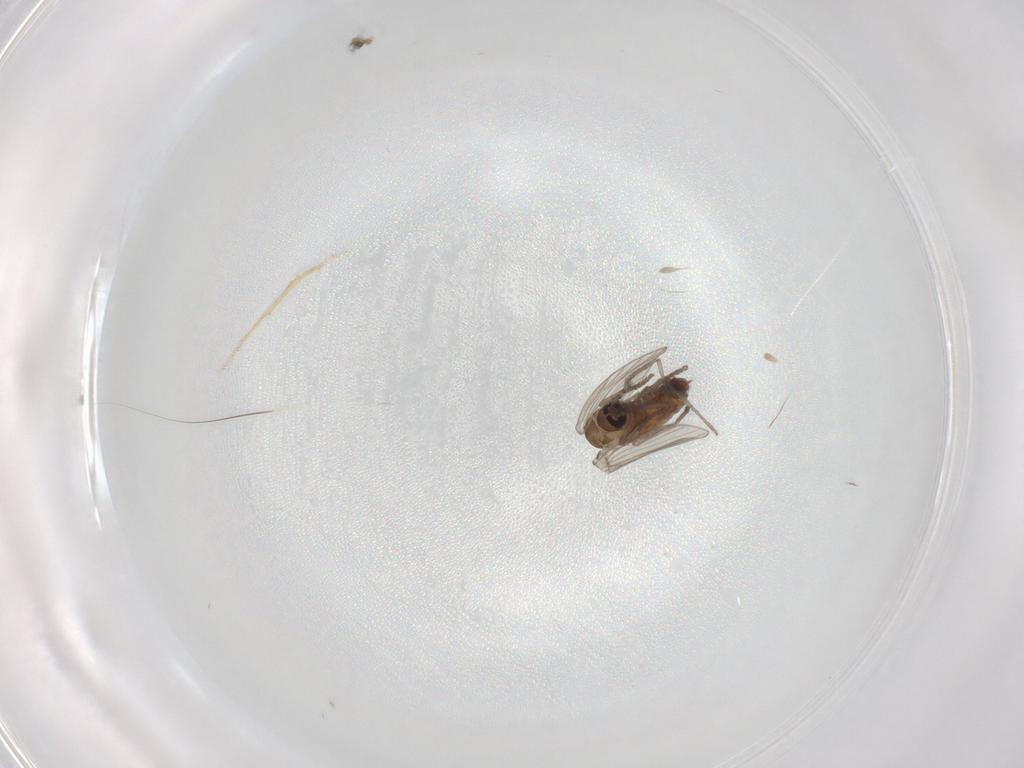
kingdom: Animalia
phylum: Arthropoda
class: Insecta
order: Diptera
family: Psychodidae
